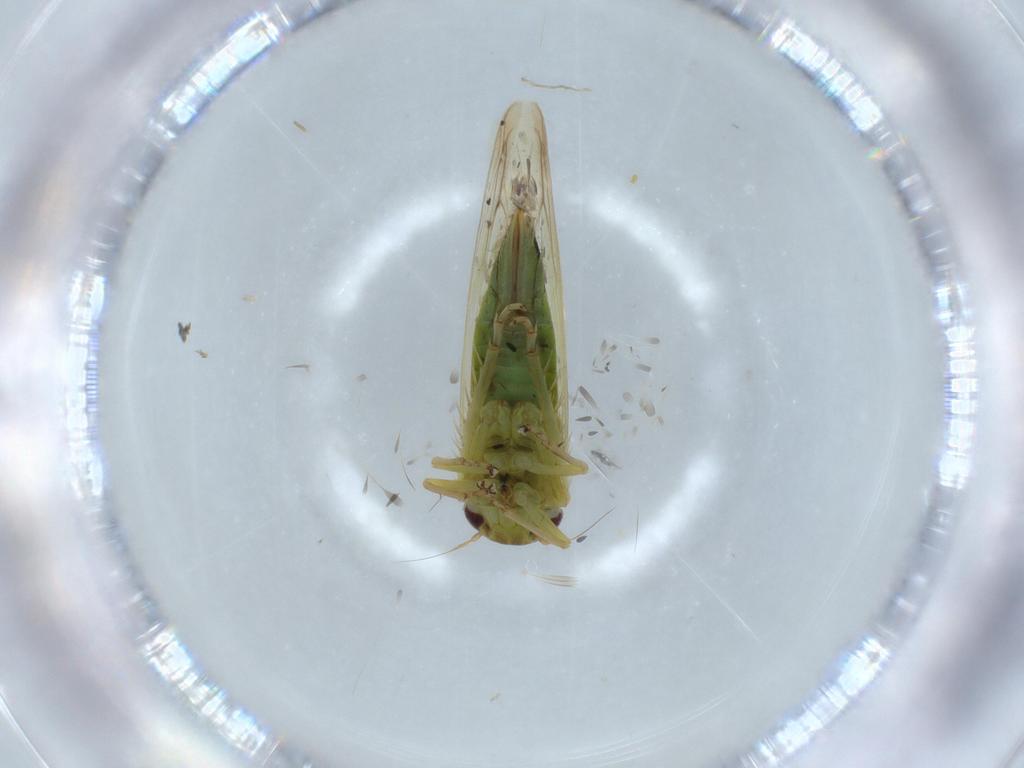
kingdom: Animalia
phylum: Arthropoda
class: Insecta
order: Hemiptera
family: Cicadellidae
